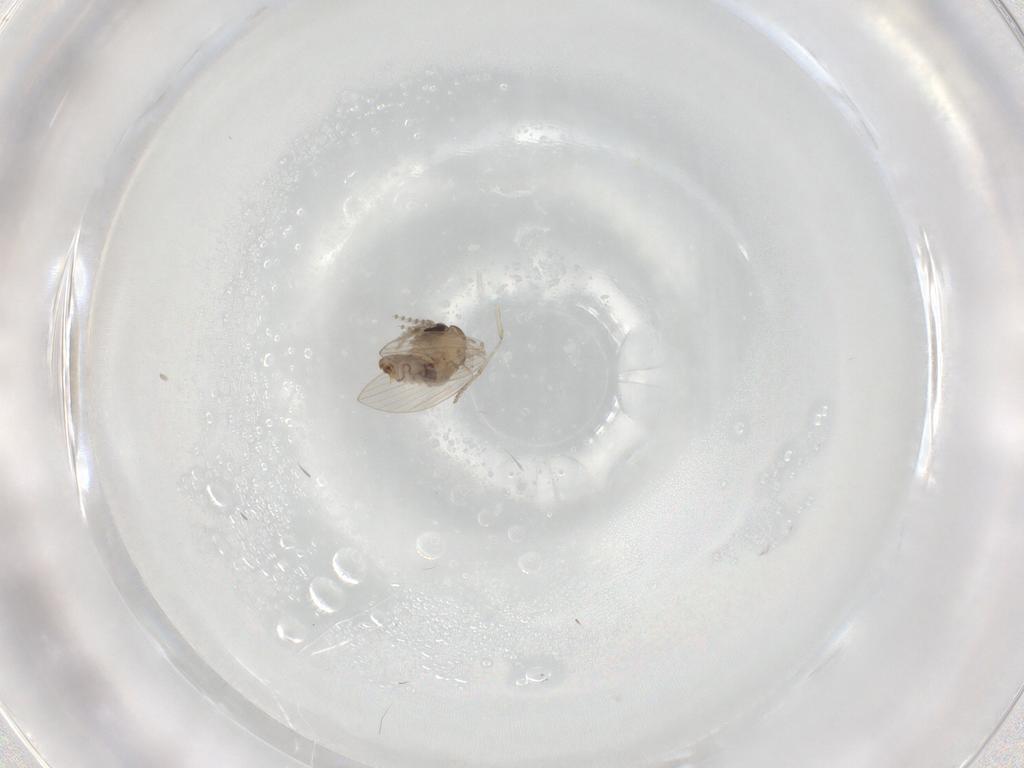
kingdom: Animalia
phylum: Arthropoda
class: Insecta
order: Diptera
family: Psychodidae
